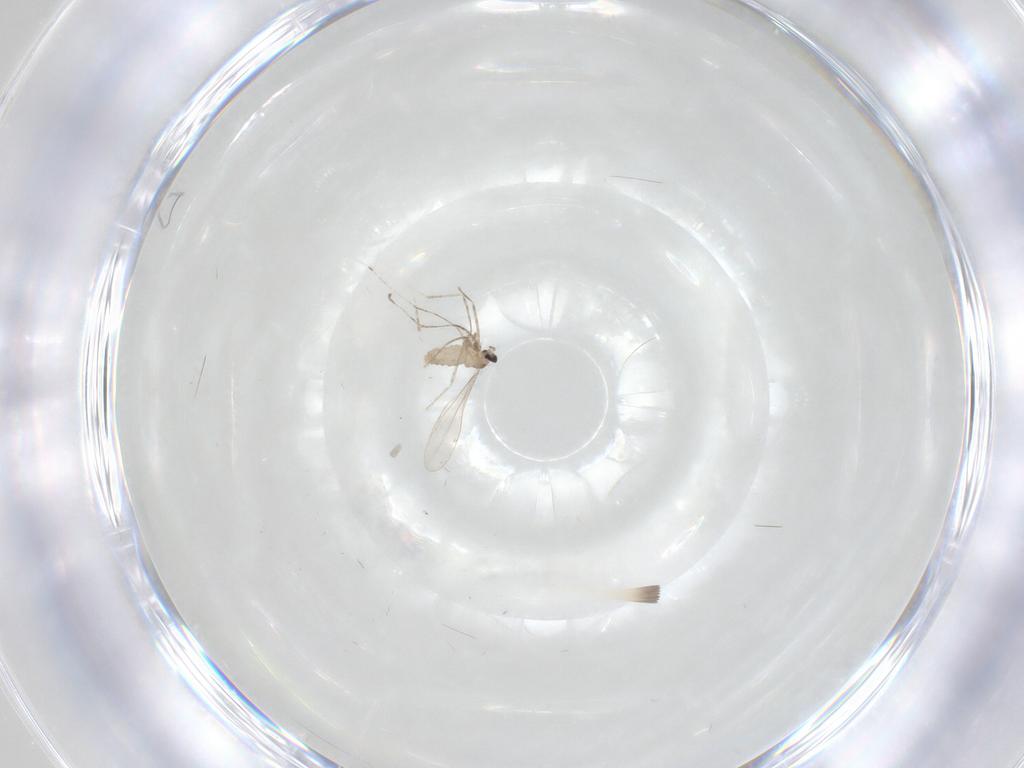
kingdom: Animalia
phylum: Arthropoda
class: Insecta
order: Diptera
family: Cecidomyiidae
